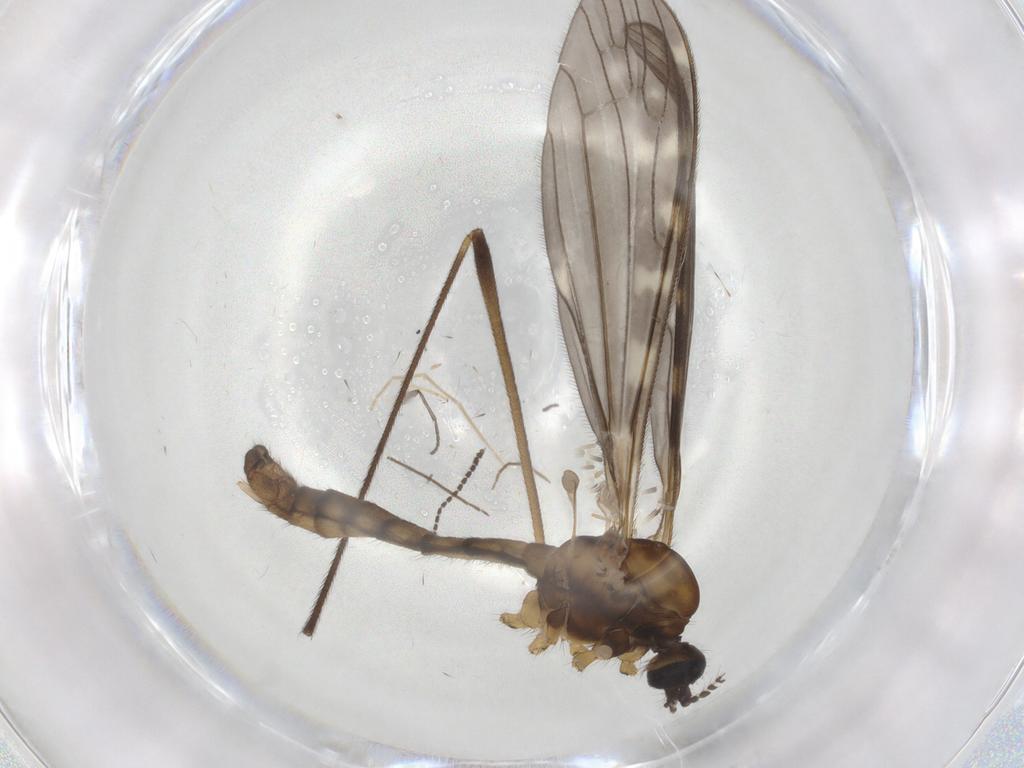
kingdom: Animalia
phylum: Arthropoda
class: Insecta
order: Diptera
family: Limoniidae
